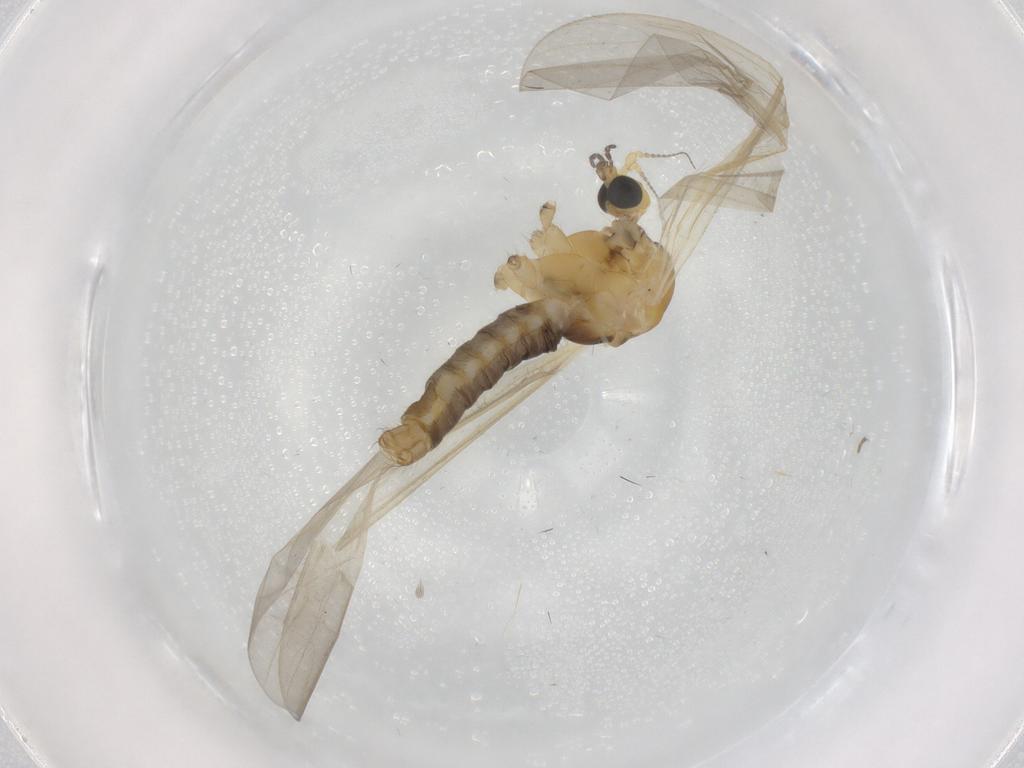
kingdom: Animalia
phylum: Arthropoda
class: Insecta
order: Diptera
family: Limoniidae
